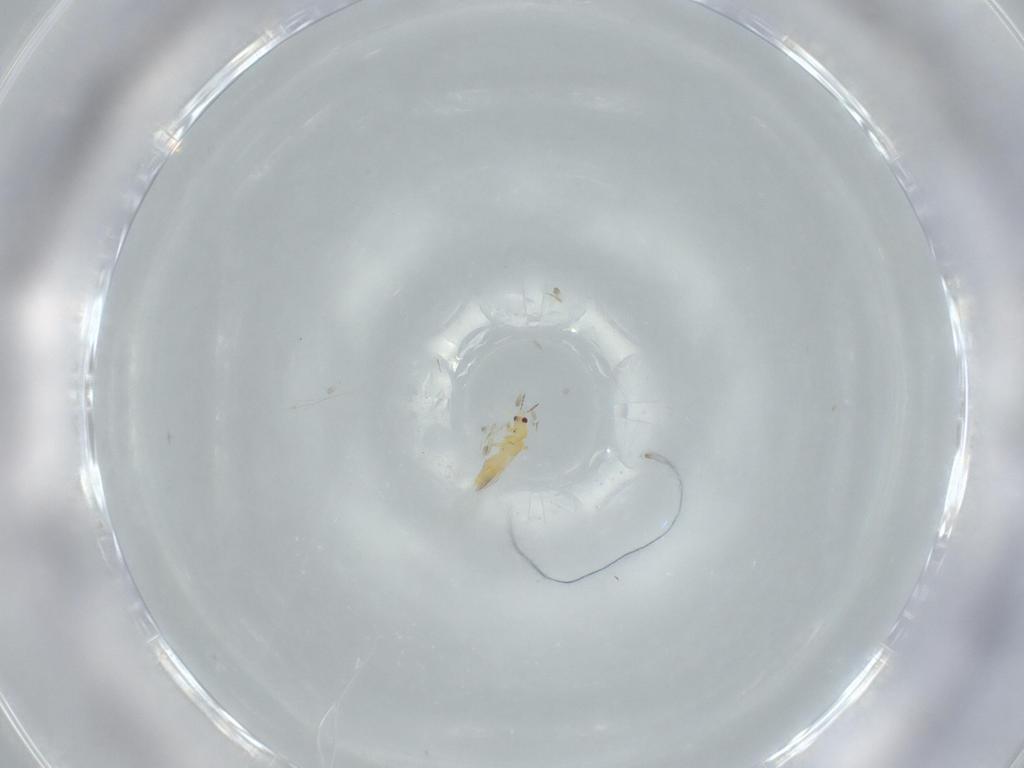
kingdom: Animalia
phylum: Arthropoda
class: Insecta
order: Thysanoptera
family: Thripidae
